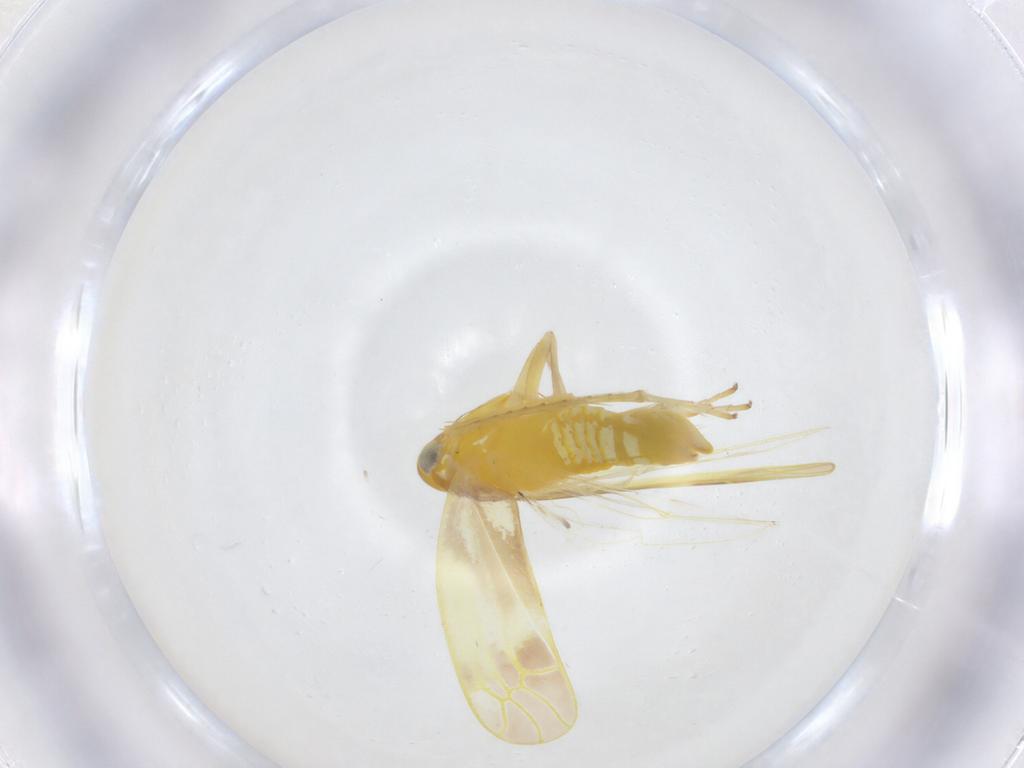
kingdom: Animalia
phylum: Arthropoda
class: Insecta
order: Hemiptera
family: Cicadellidae
